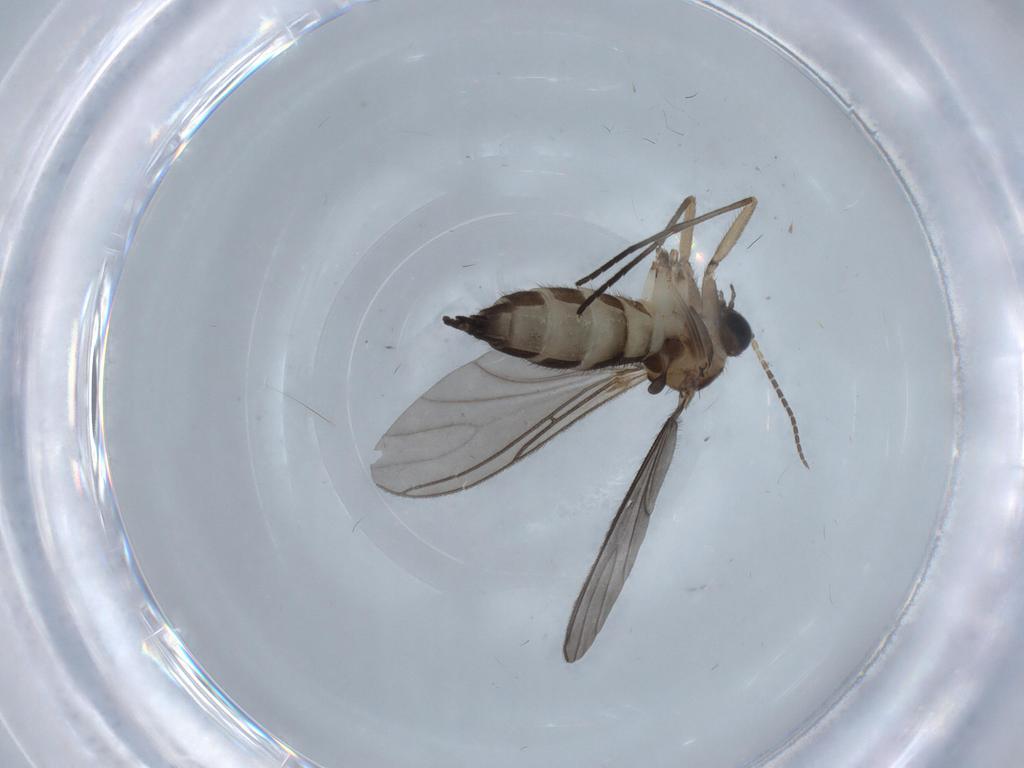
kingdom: Animalia
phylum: Arthropoda
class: Insecta
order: Diptera
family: Sciaridae
